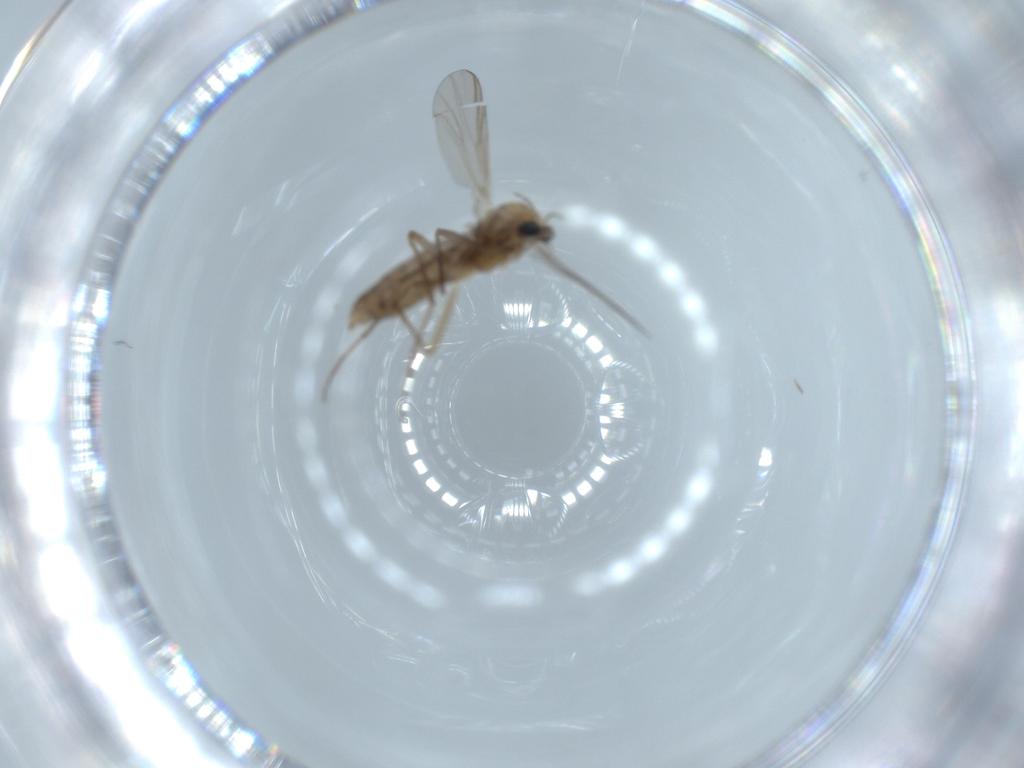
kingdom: Animalia
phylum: Arthropoda
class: Insecta
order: Diptera
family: Chironomidae
